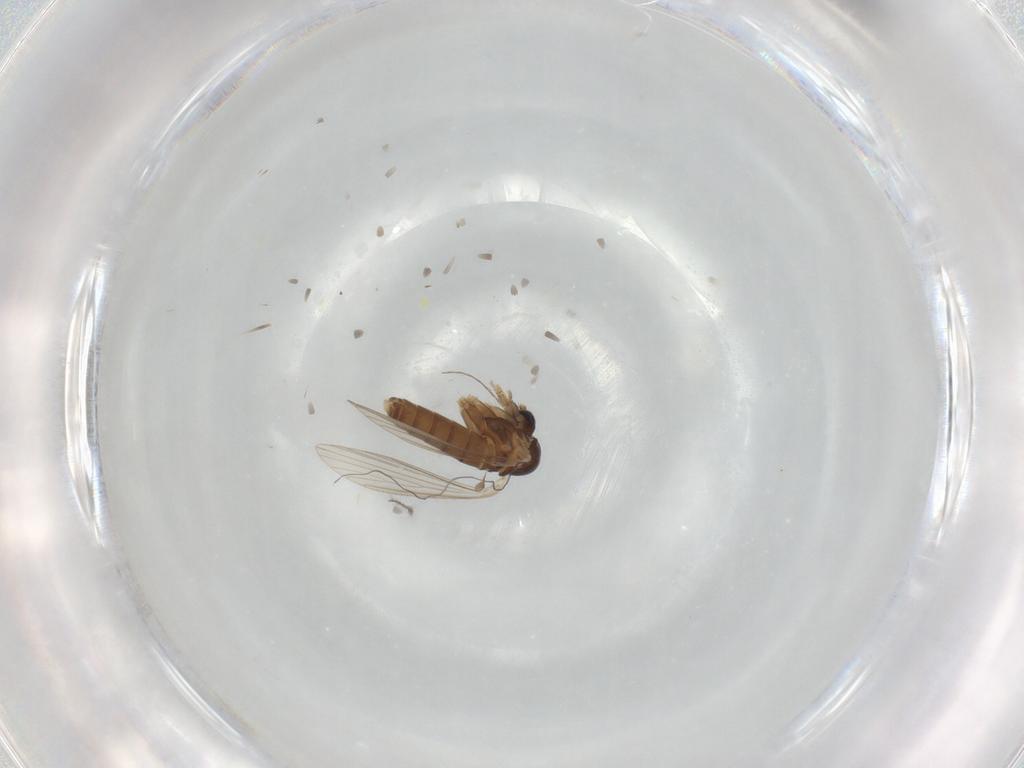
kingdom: Animalia
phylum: Arthropoda
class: Insecta
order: Diptera
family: Psychodidae
